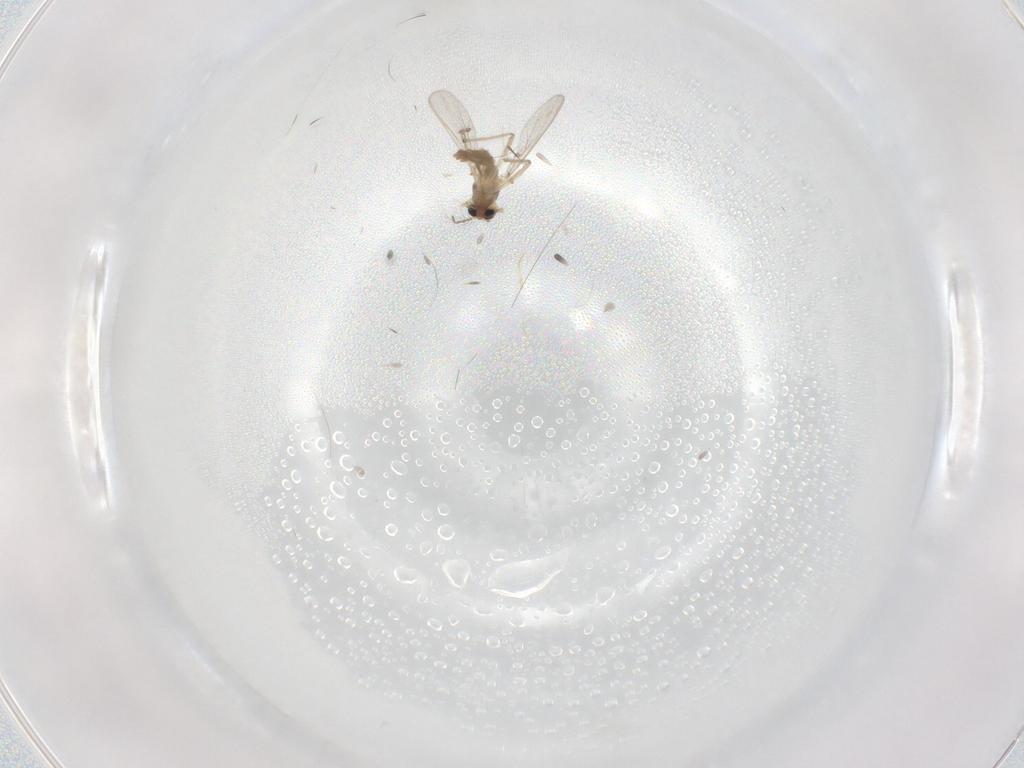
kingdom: Animalia
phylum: Arthropoda
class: Insecta
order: Diptera
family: Chironomidae
